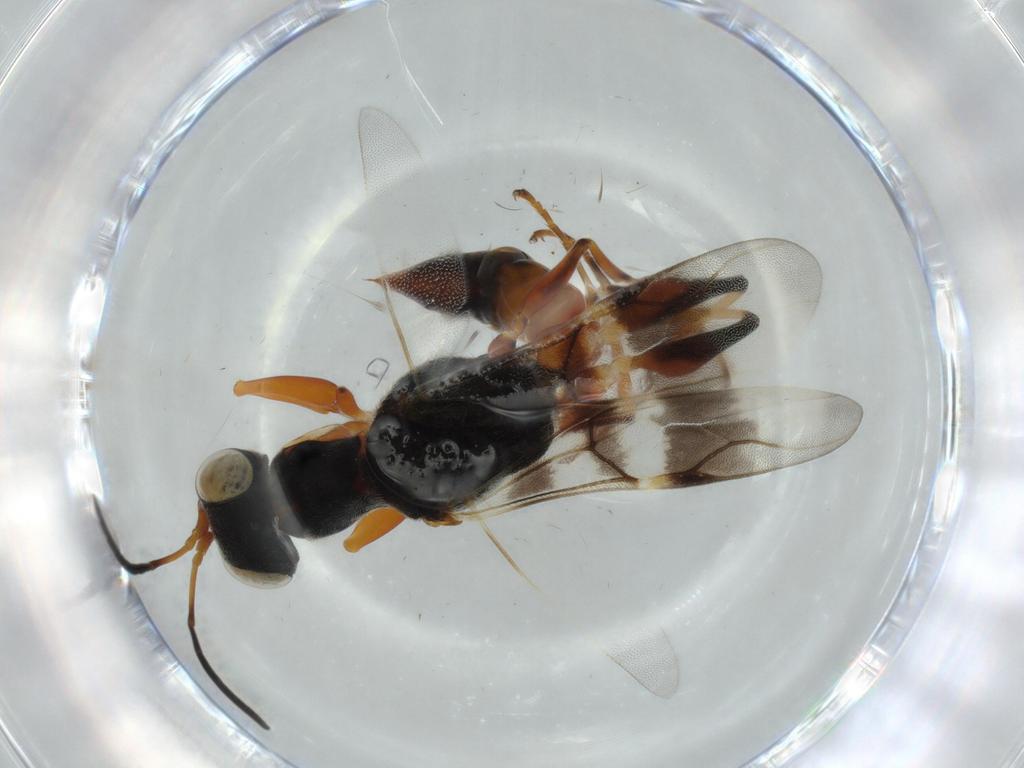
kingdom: Animalia
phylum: Arthropoda
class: Insecta
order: Hymenoptera
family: Dryinidae
